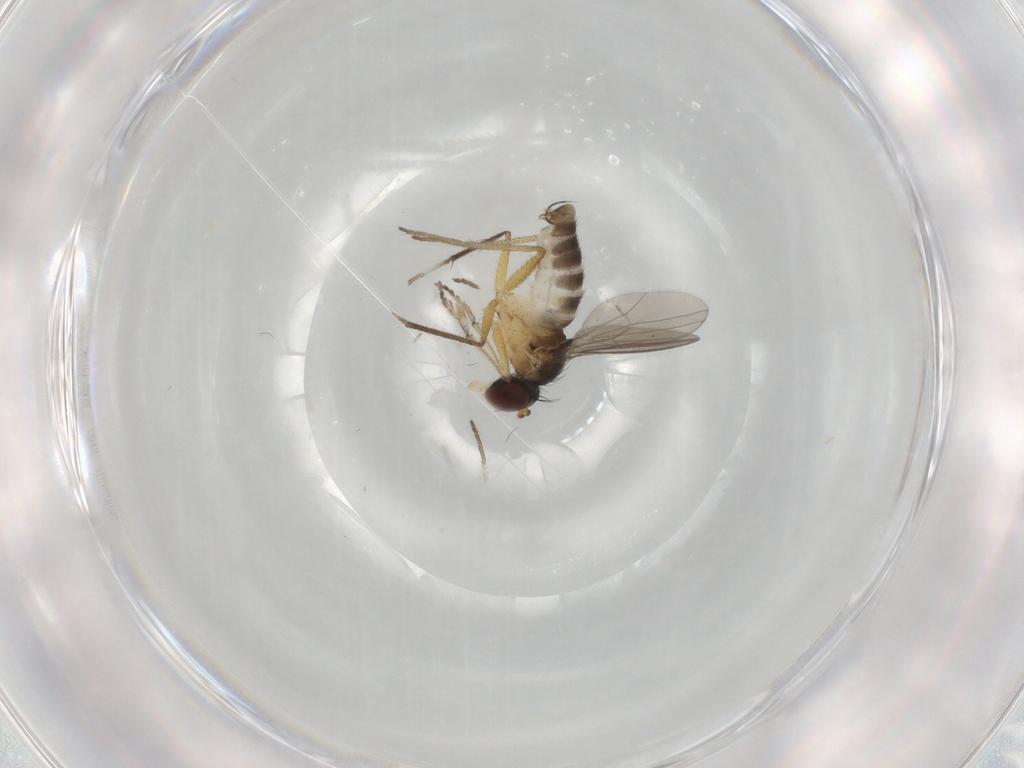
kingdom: Animalia
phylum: Arthropoda
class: Insecta
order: Diptera
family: Dolichopodidae
